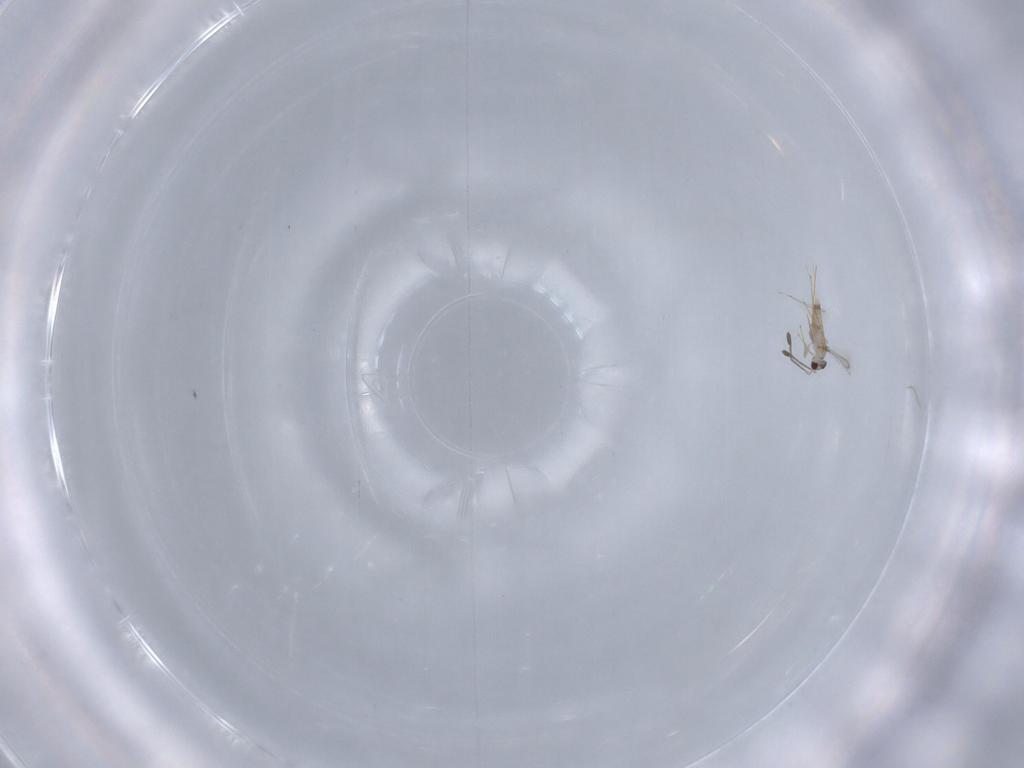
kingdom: Animalia
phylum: Arthropoda
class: Insecta
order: Hymenoptera
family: Mymaridae
